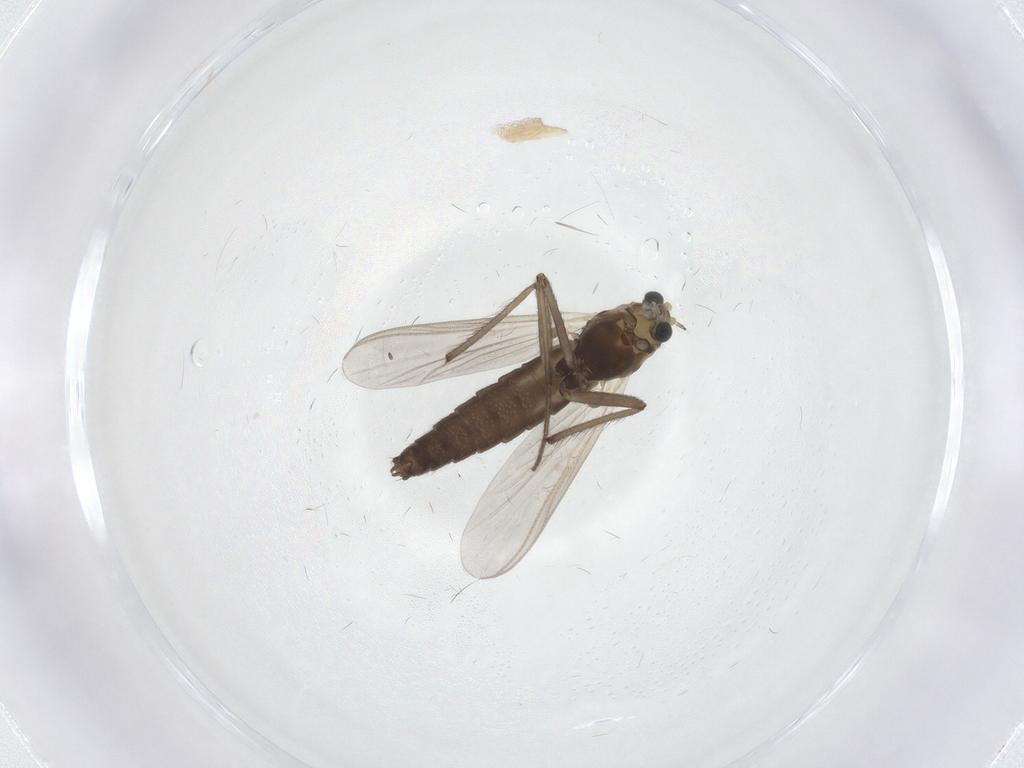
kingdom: Animalia
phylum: Arthropoda
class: Insecta
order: Diptera
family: Chironomidae
